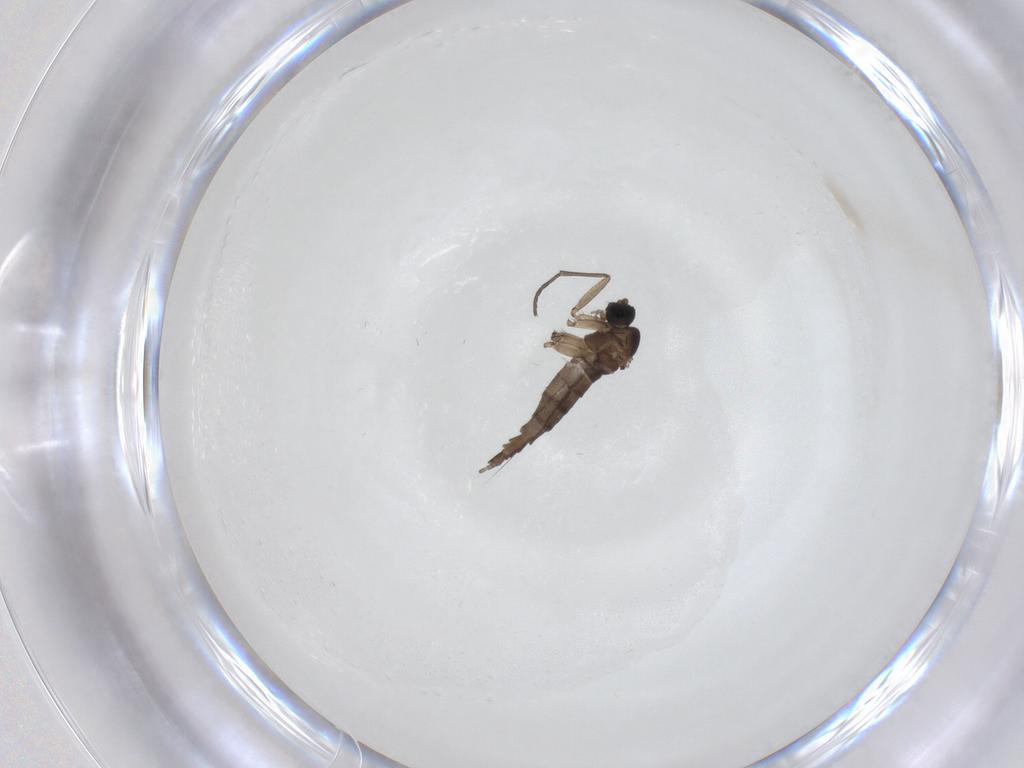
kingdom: Animalia
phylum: Arthropoda
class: Insecta
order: Diptera
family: Sciaridae
